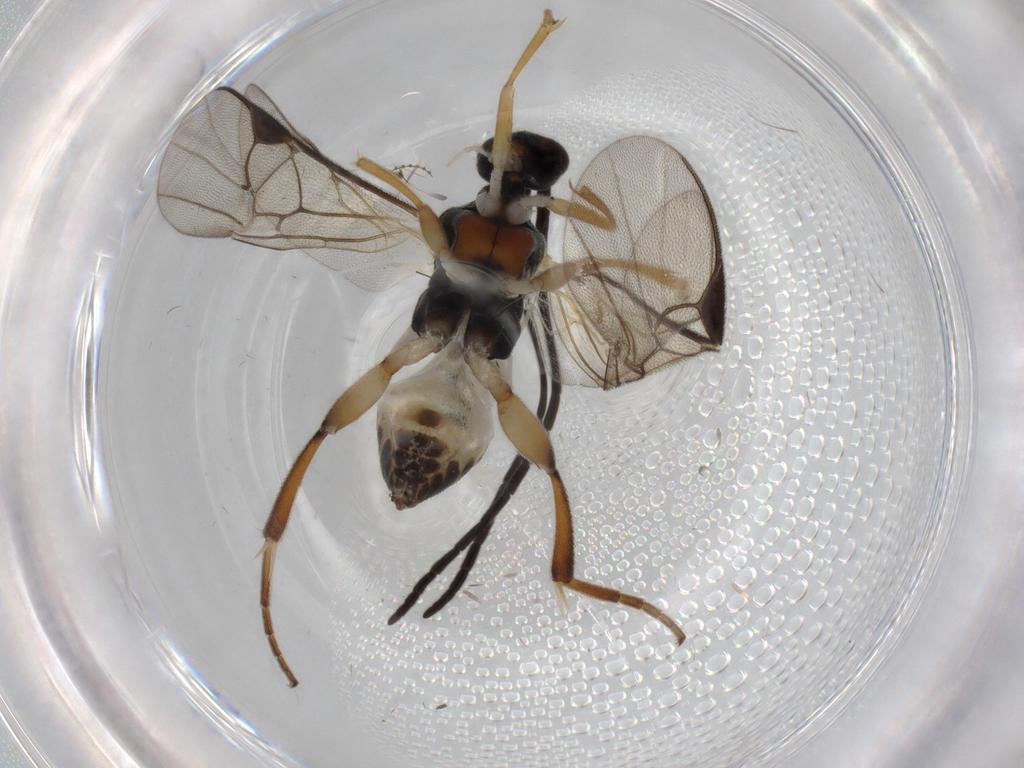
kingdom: Animalia
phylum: Arthropoda
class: Insecta
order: Hymenoptera
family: Braconidae
